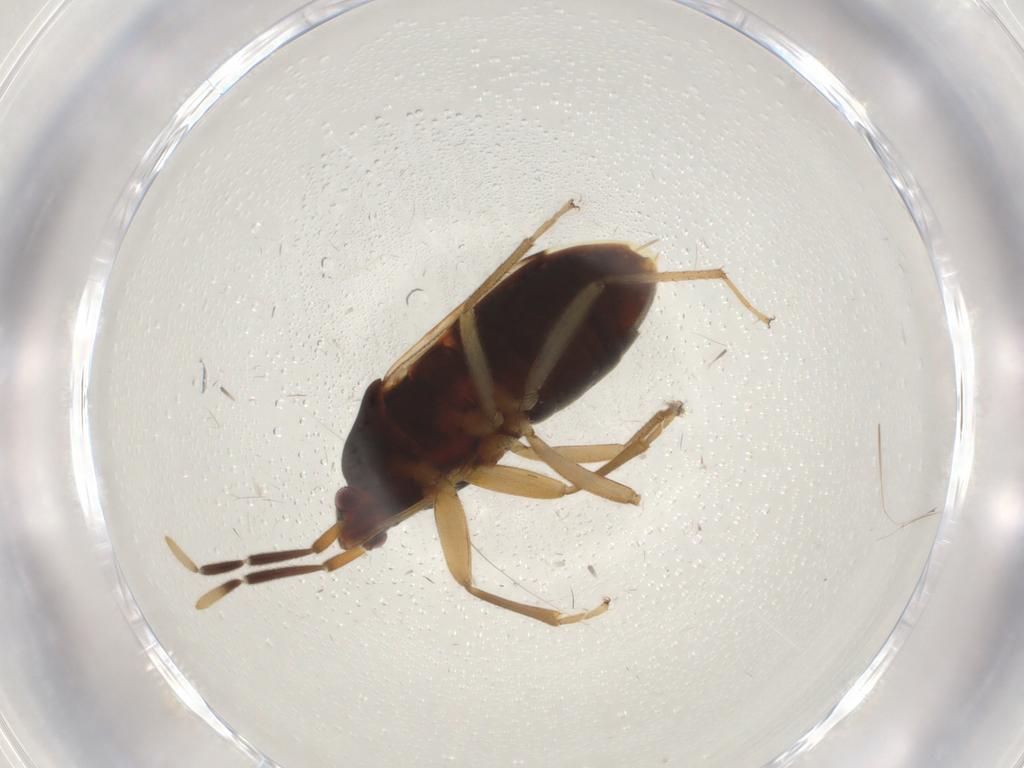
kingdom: Animalia
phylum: Arthropoda
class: Insecta
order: Hemiptera
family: Rhyparochromidae
